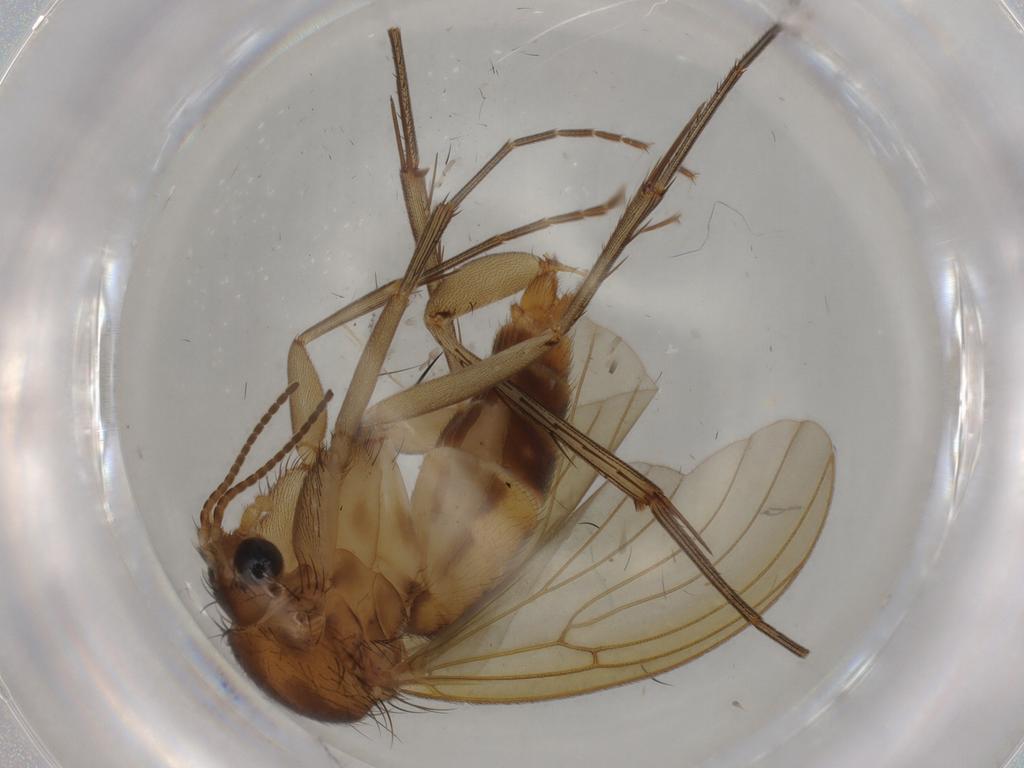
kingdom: Animalia
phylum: Arthropoda
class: Insecta
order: Diptera
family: Mycetophilidae
